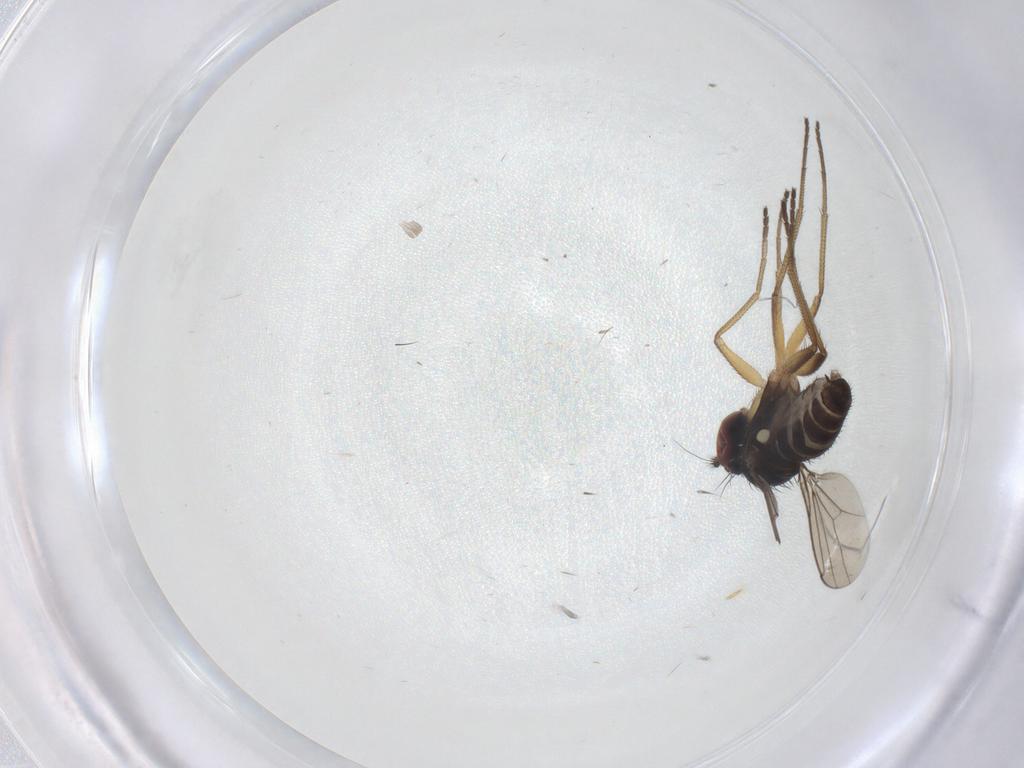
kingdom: Animalia
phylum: Arthropoda
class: Insecta
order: Diptera
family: Dolichopodidae
